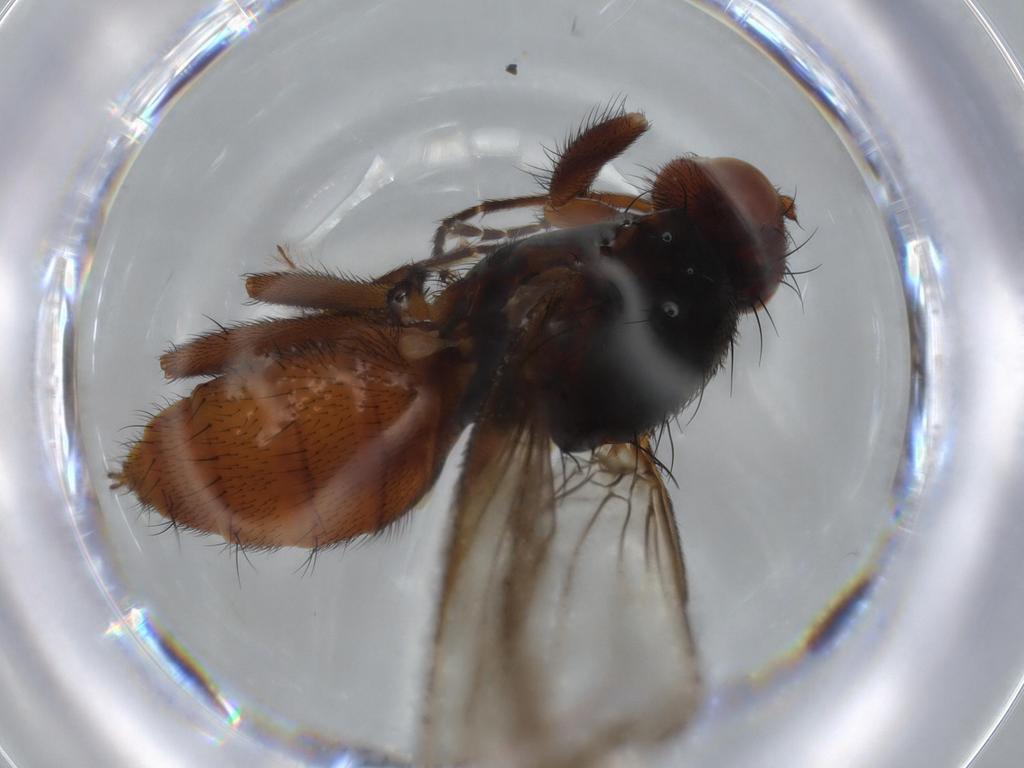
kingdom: Animalia
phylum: Arthropoda
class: Insecta
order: Diptera
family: Heleomyzidae
